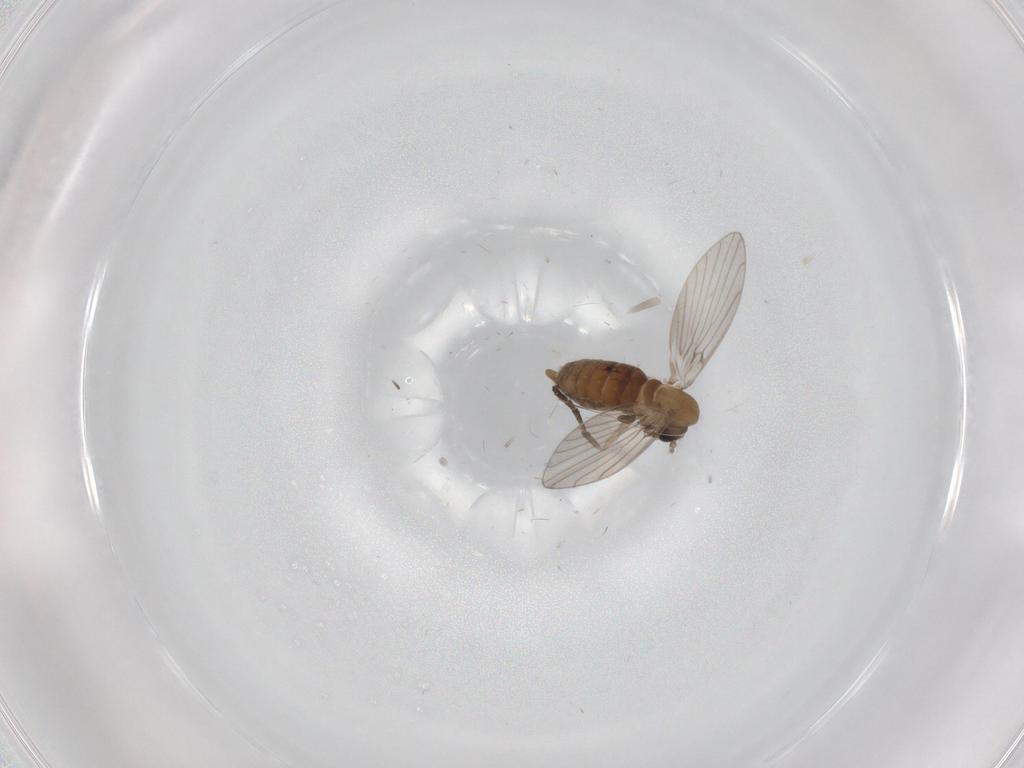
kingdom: Animalia
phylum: Arthropoda
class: Insecta
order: Diptera
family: Psychodidae
